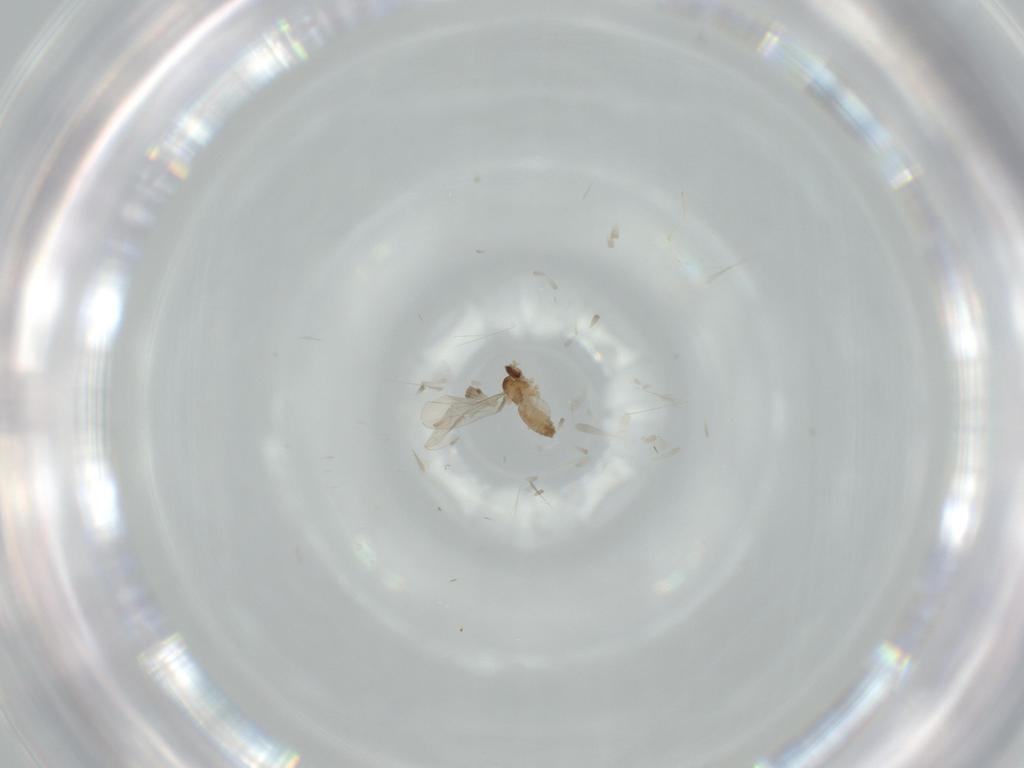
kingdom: Animalia
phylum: Arthropoda
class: Insecta
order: Diptera
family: Cecidomyiidae
